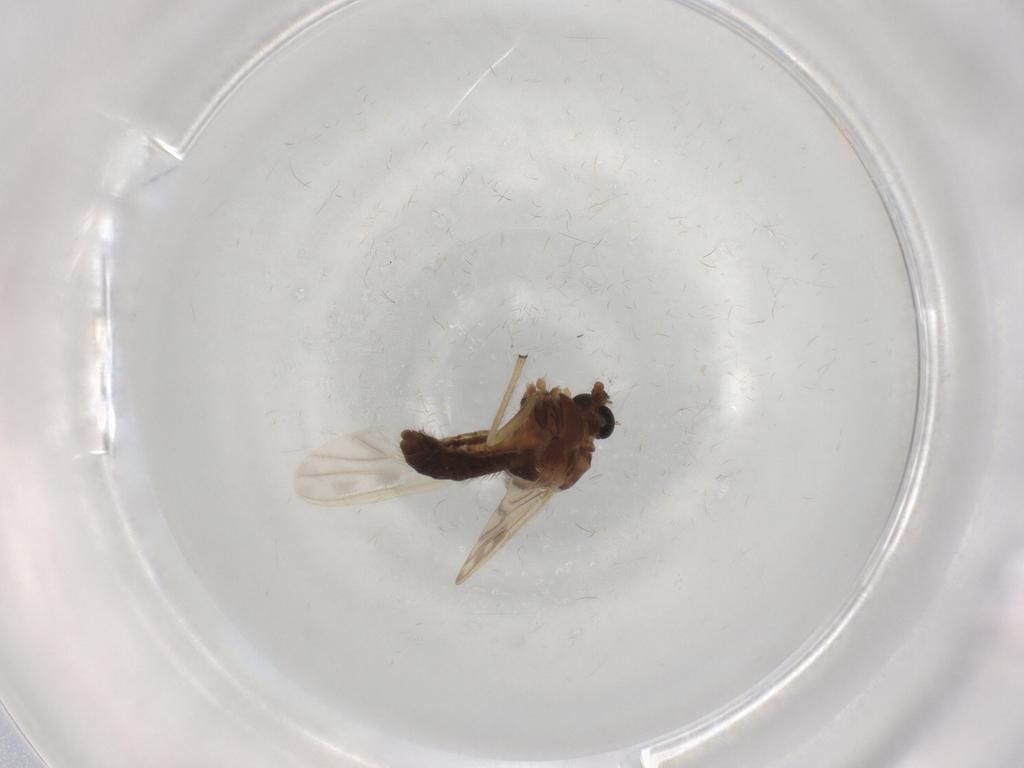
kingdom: Animalia
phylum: Arthropoda
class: Insecta
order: Diptera
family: Chironomidae
